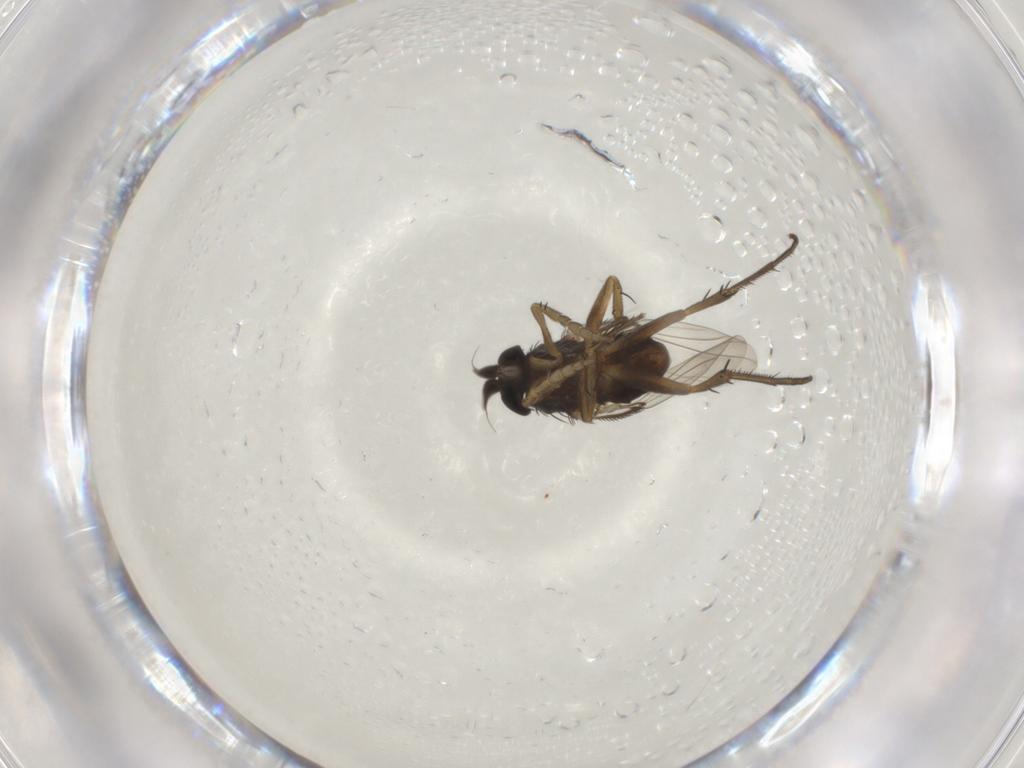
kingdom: Animalia
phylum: Arthropoda
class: Insecta
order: Diptera
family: Phoridae
